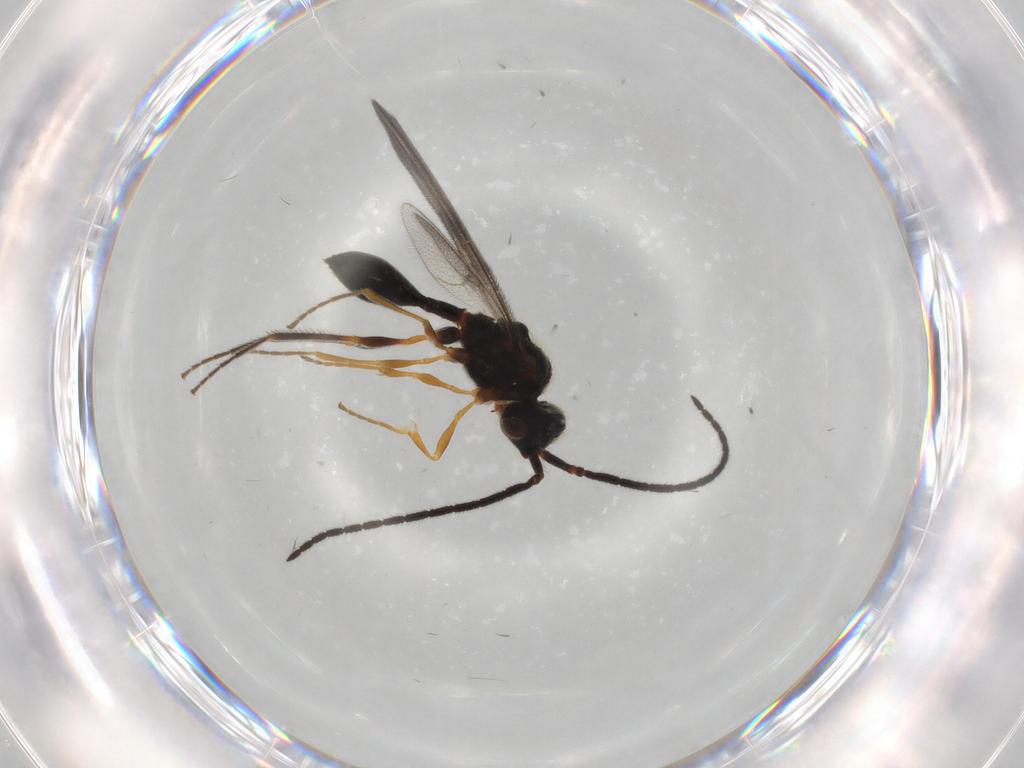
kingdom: Animalia
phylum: Arthropoda
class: Insecta
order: Hymenoptera
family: Diapriidae
